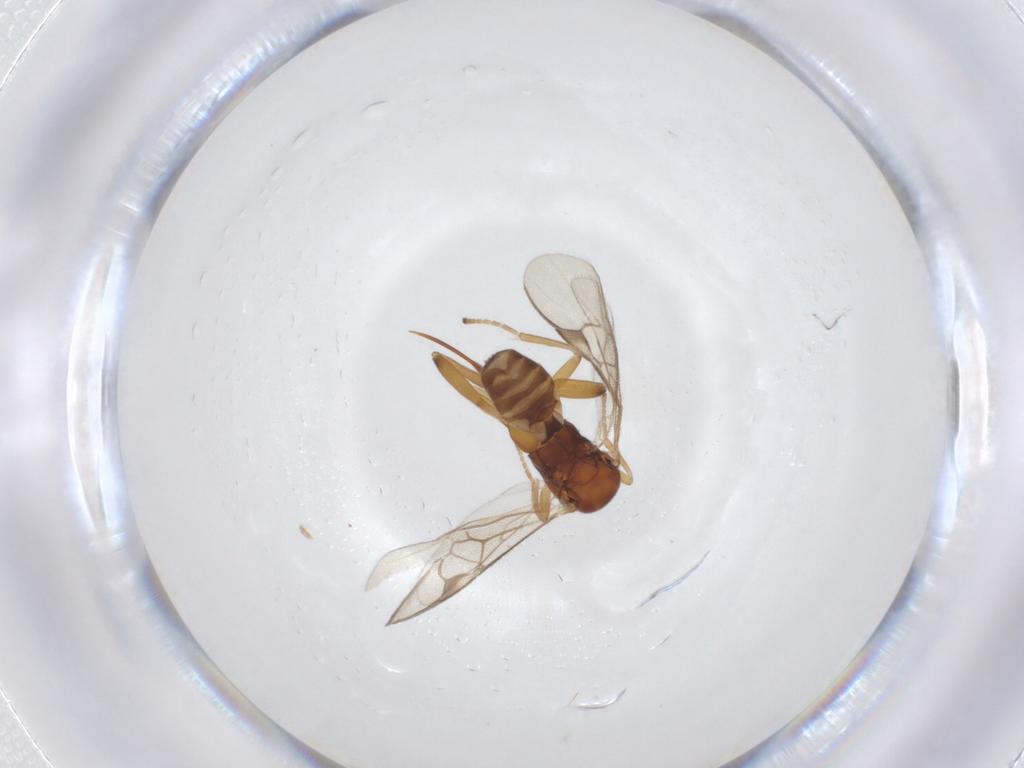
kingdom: Animalia
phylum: Arthropoda
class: Insecta
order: Hymenoptera
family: Braconidae
